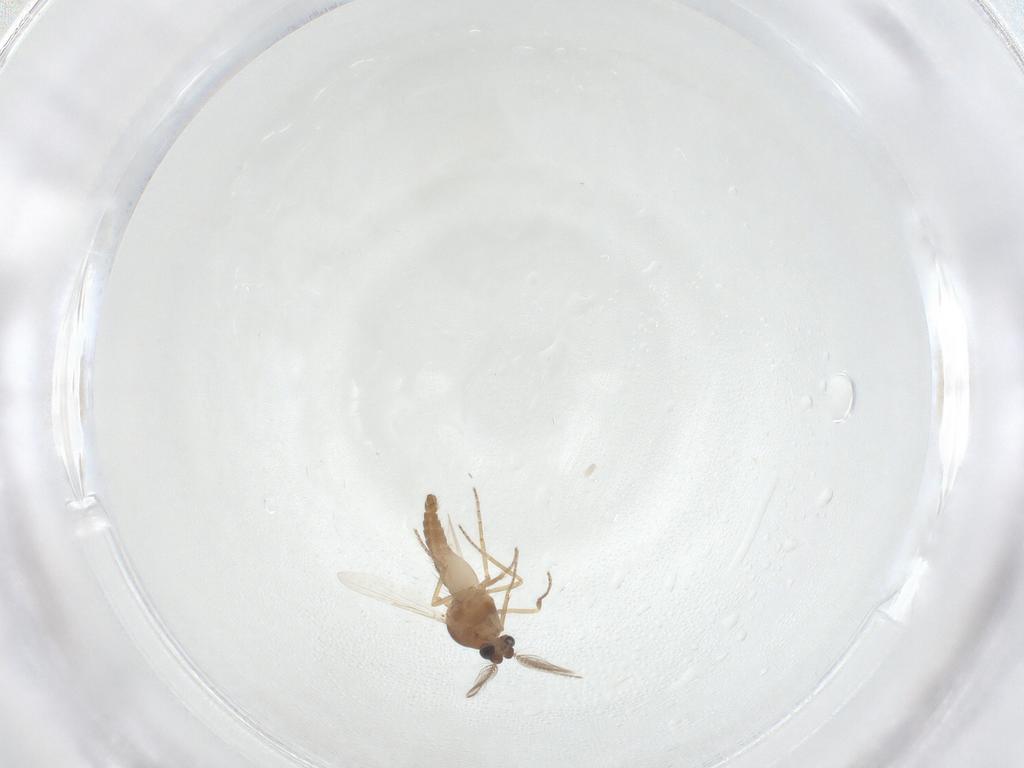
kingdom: Animalia
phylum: Arthropoda
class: Insecta
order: Diptera
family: Ceratopogonidae
